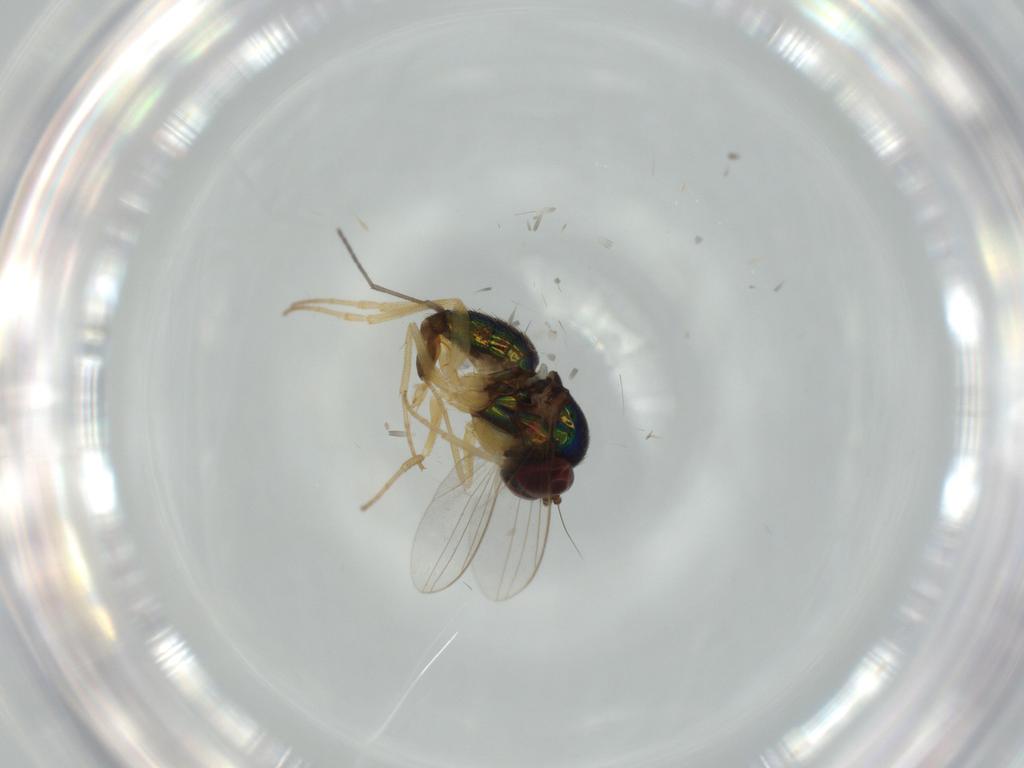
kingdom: Animalia
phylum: Arthropoda
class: Insecta
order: Diptera
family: Dolichopodidae
